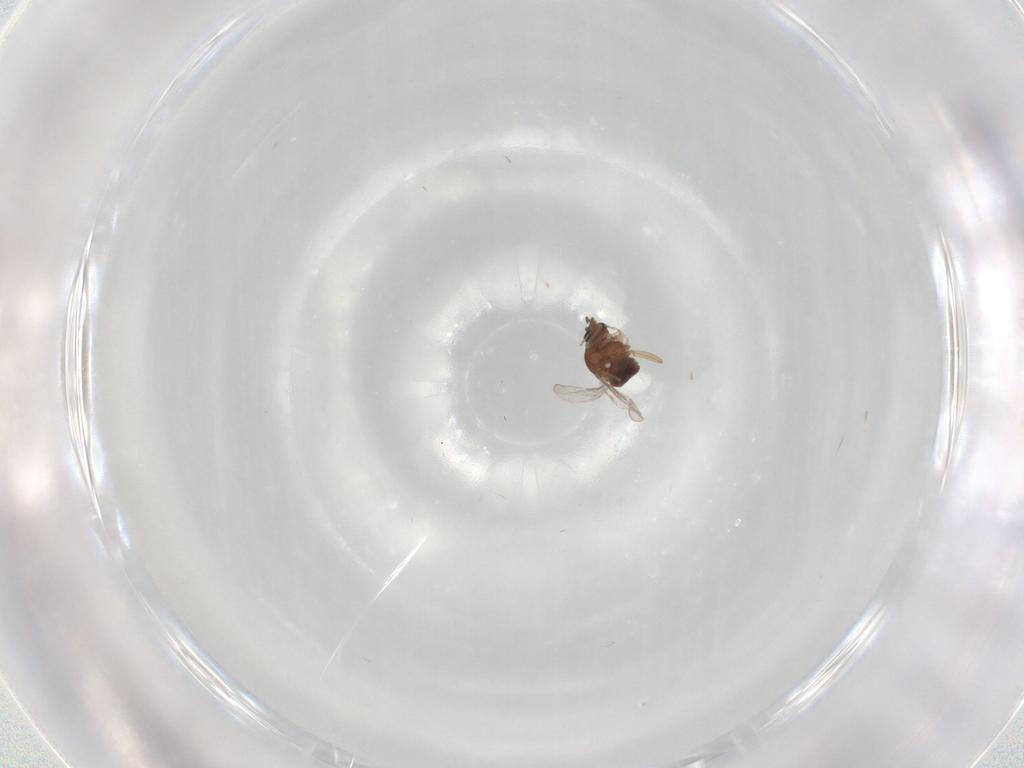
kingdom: Animalia
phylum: Arthropoda
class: Insecta
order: Diptera
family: Ceratopogonidae
